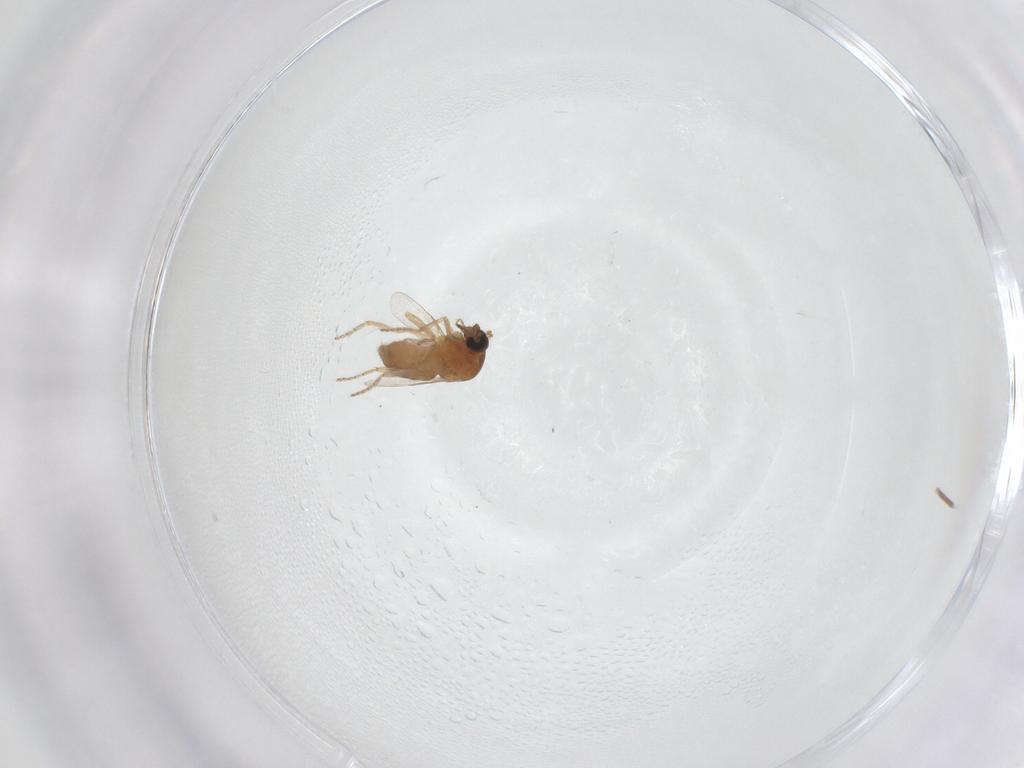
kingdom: Animalia
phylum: Arthropoda
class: Insecta
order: Diptera
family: Ceratopogonidae
